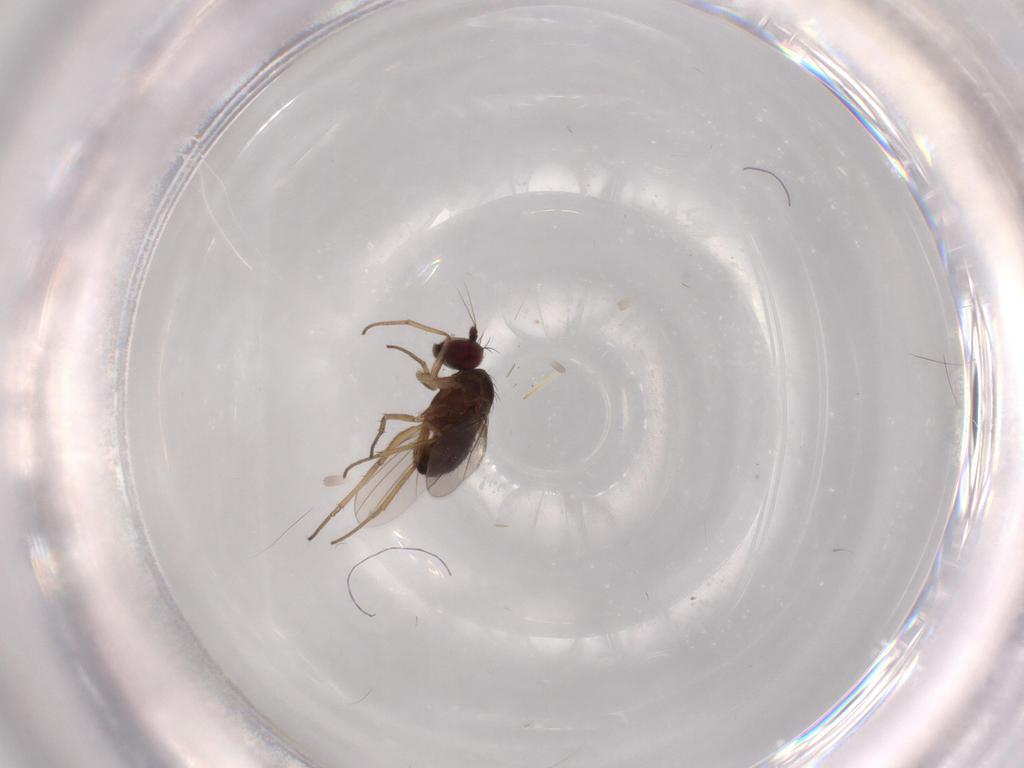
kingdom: Animalia
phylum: Arthropoda
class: Insecta
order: Diptera
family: Dolichopodidae
